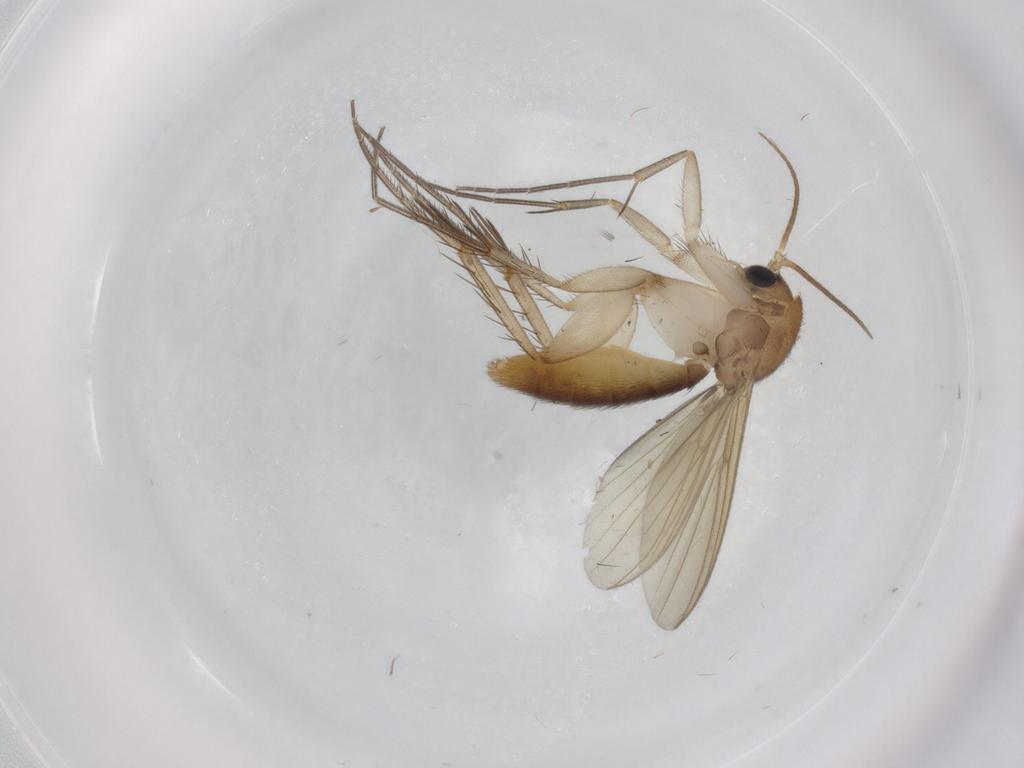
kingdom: Animalia
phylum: Arthropoda
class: Insecta
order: Diptera
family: Mycetophilidae
